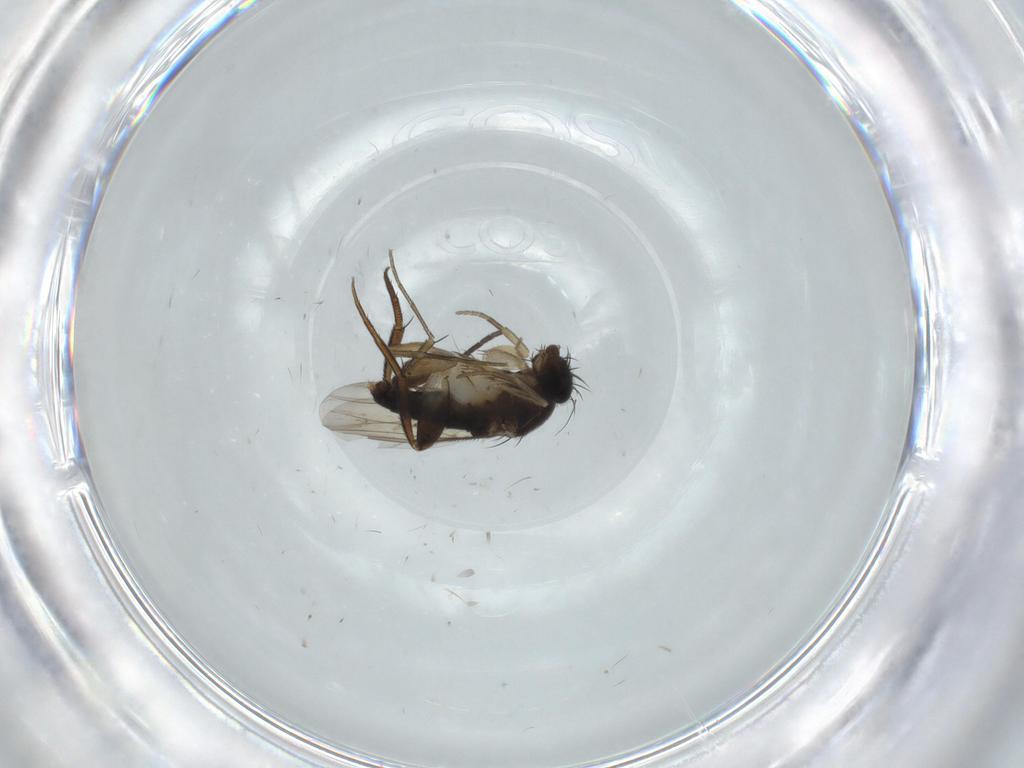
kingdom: Animalia
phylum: Arthropoda
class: Insecta
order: Diptera
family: Phoridae
